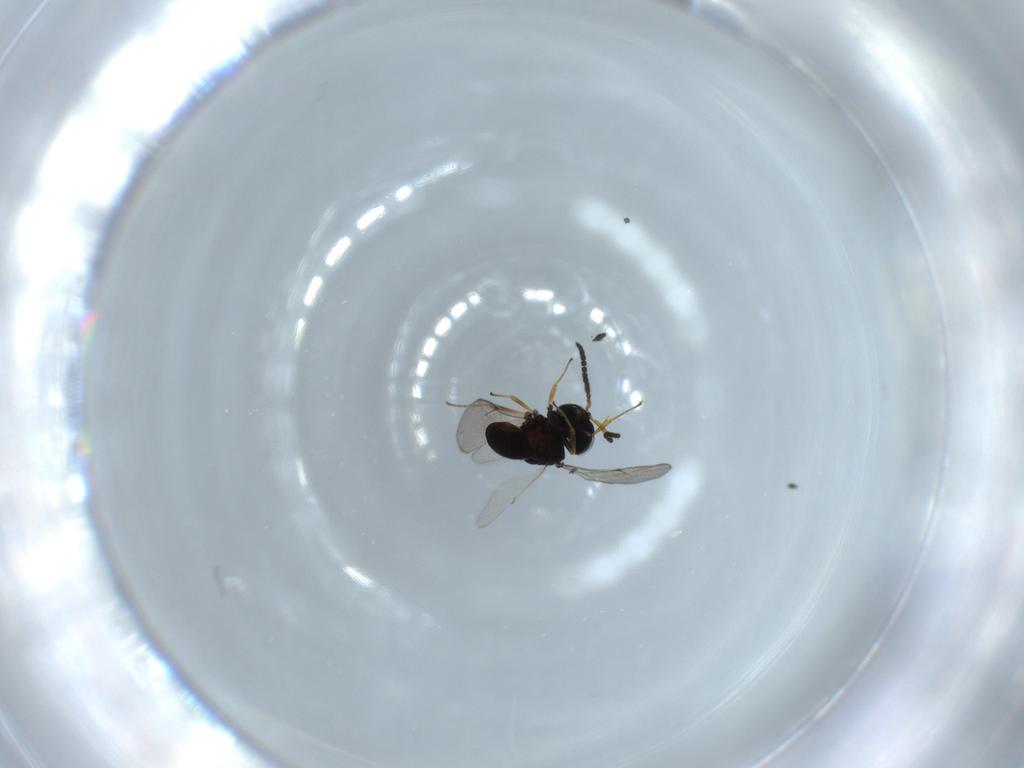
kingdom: Animalia
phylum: Arthropoda
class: Insecta
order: Hymenoptera
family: Scelionidae
